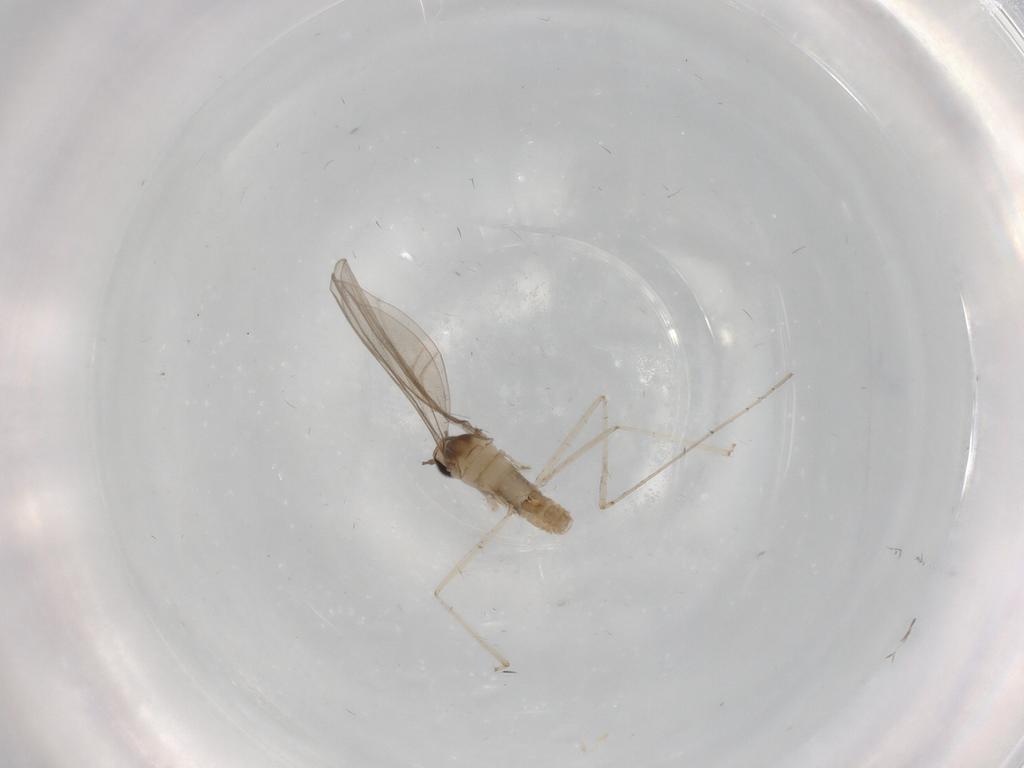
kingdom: Animalia
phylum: Arthropoda
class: Insecta
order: Diptera
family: Cecidomyiidae
